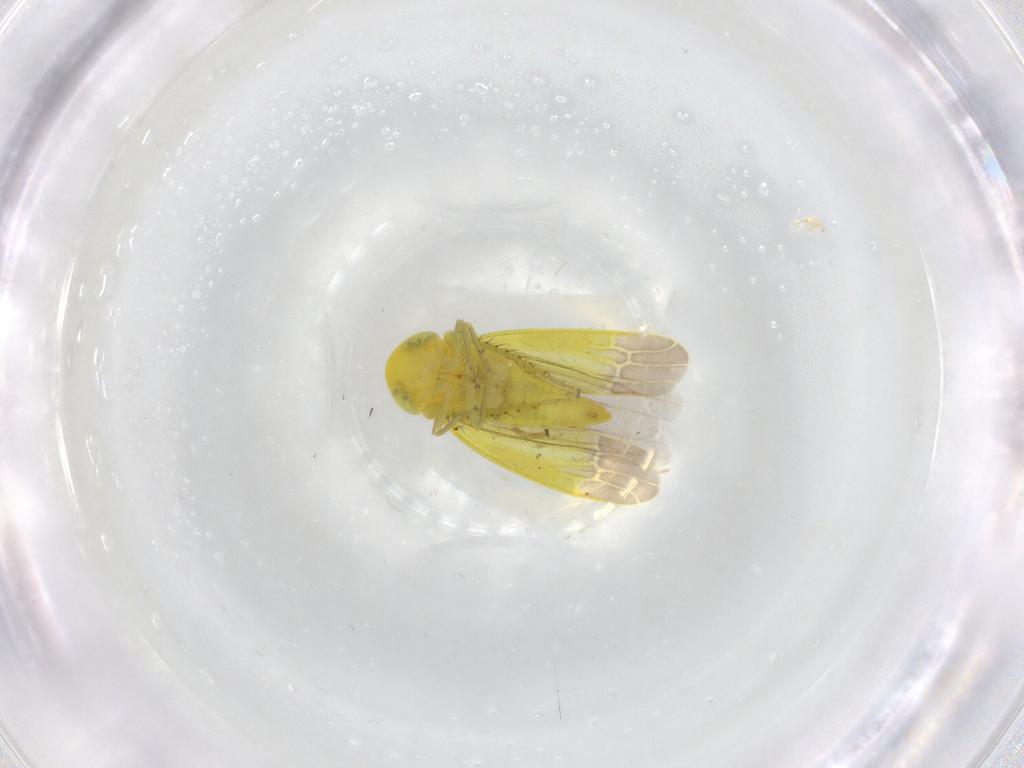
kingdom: Animalia
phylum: Arthropoda
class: Insecta
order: Hemiptera
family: Cicadellidae
